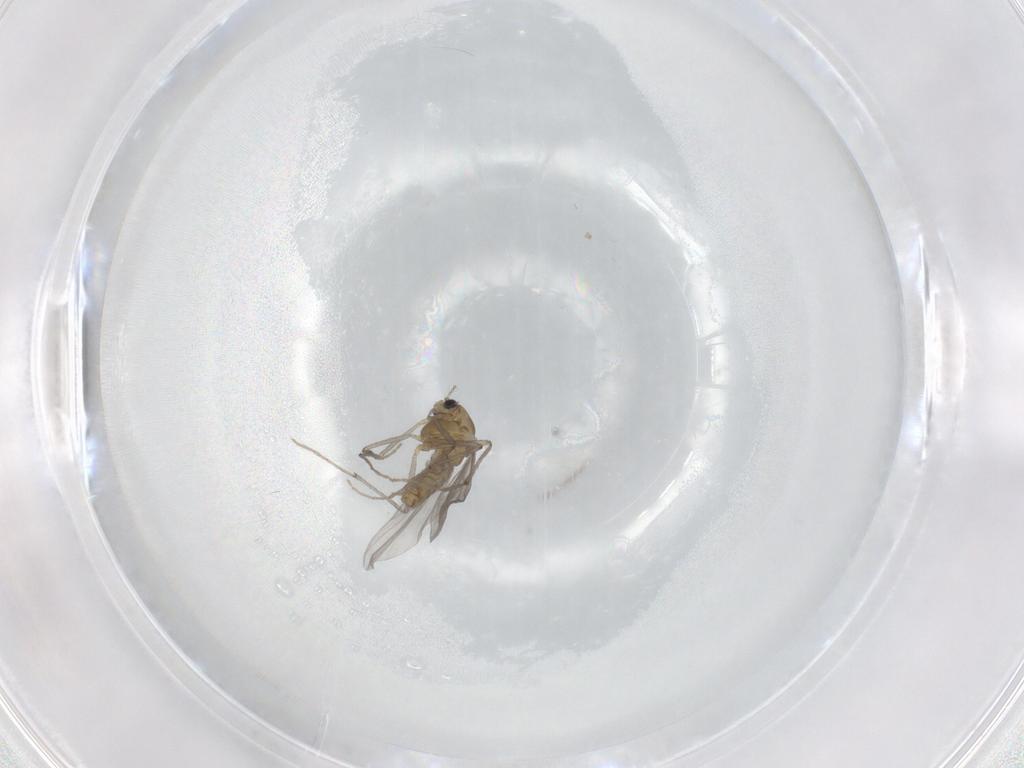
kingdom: Animalia
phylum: Arthropoda
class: Insecta
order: Diptera
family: Chironomidae
